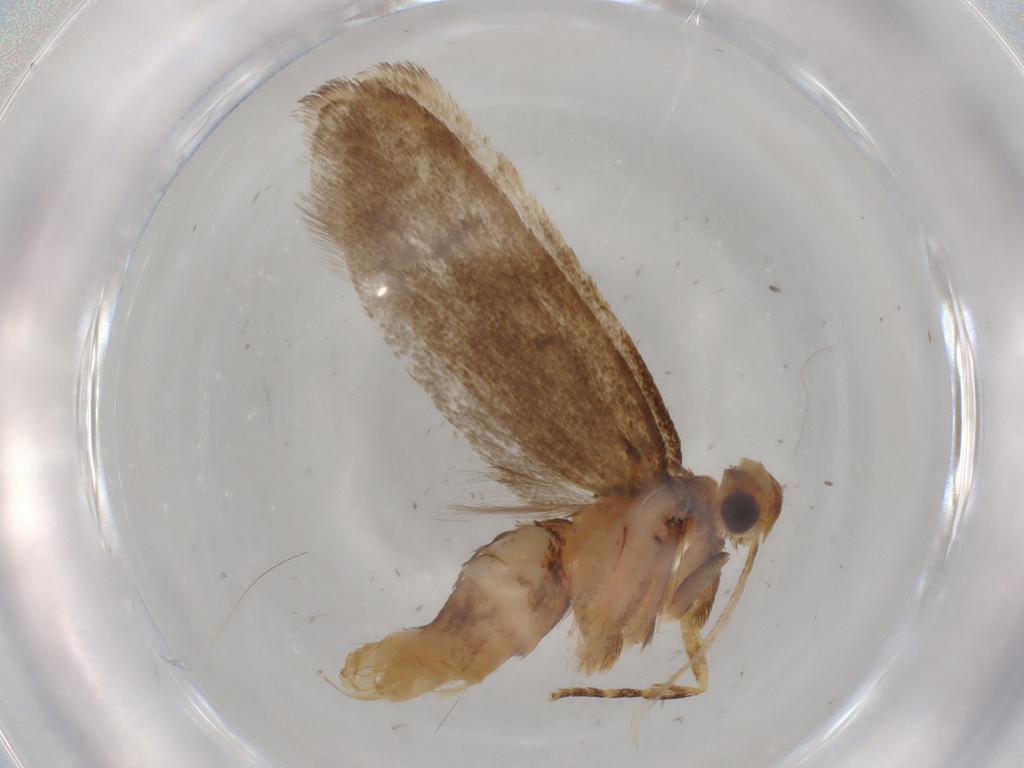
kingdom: Animalia
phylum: Arthropoda
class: Insecta
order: Lepidoptera
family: Lecithoceridae
